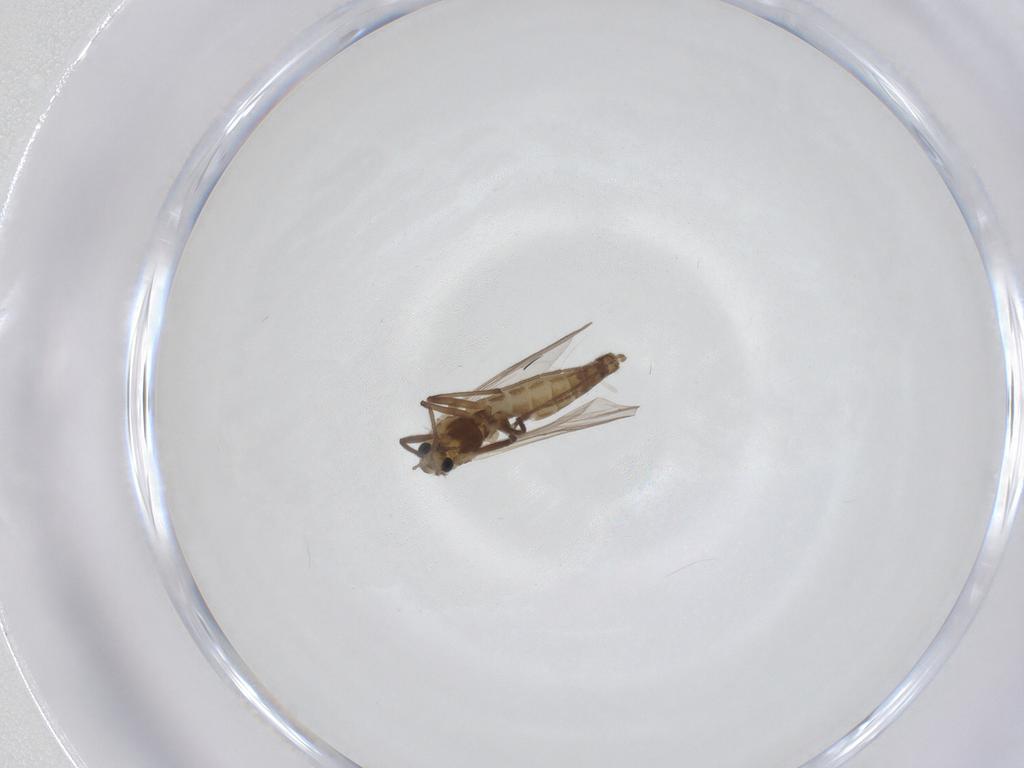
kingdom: Animalia
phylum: Arthropoda
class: Insecta
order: Diptera
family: Chironomidae
